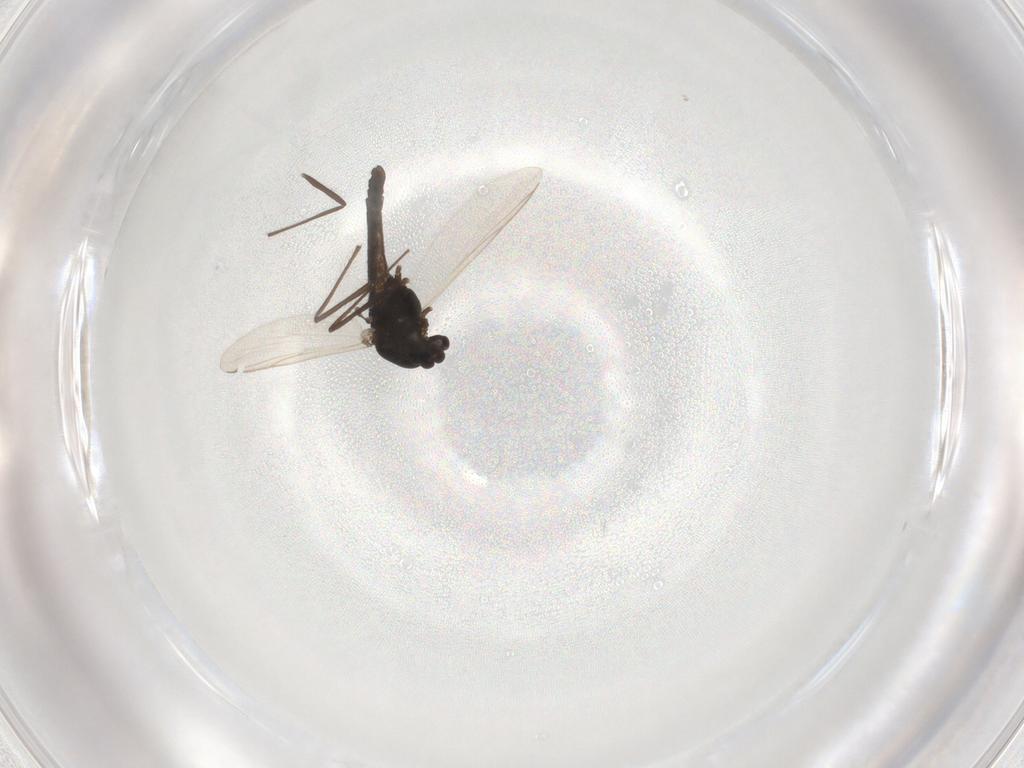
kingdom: Animalia
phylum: Arthropoda
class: Insecta
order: Diptera
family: Chironomidae
